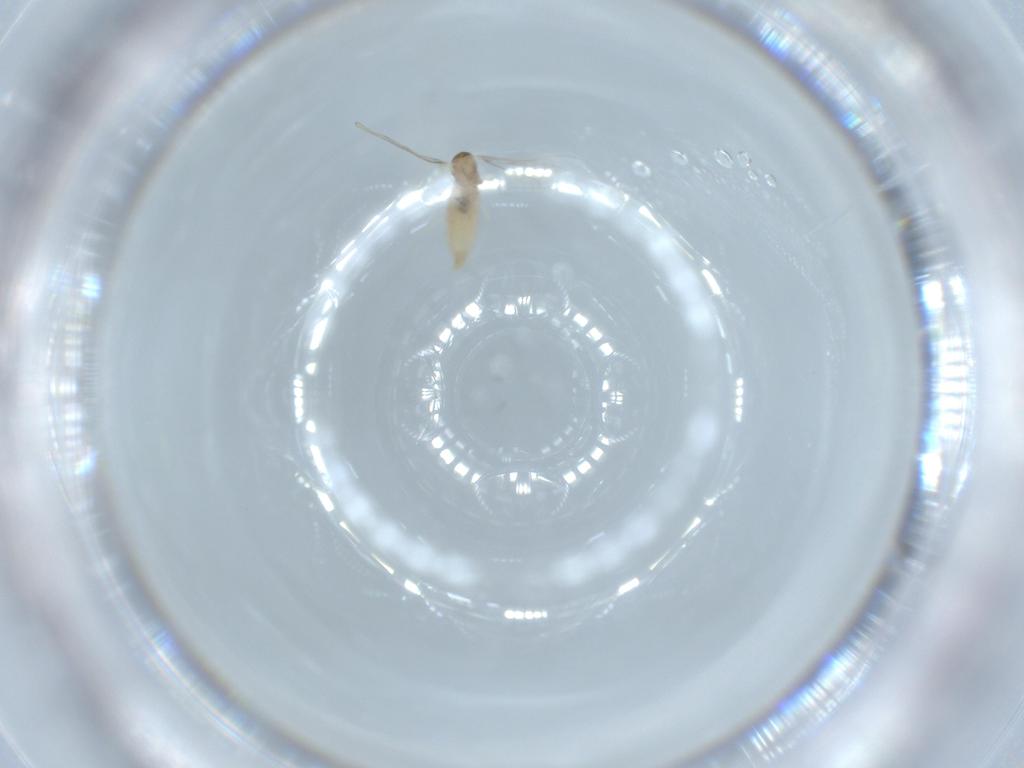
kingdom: Animalia
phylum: Arthropoda
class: Insecta
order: Diptera
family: Cecidomyiidae
